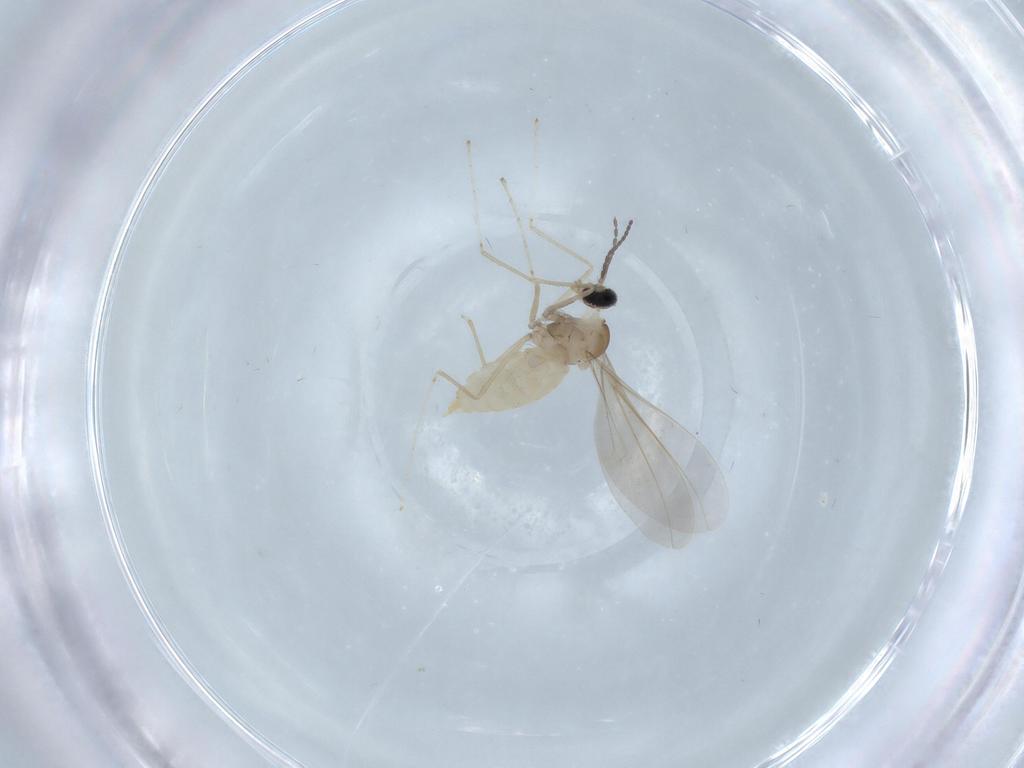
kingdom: Animalia
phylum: Arthropoda
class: Insecta
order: Diptera
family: Cecidomyiidae
